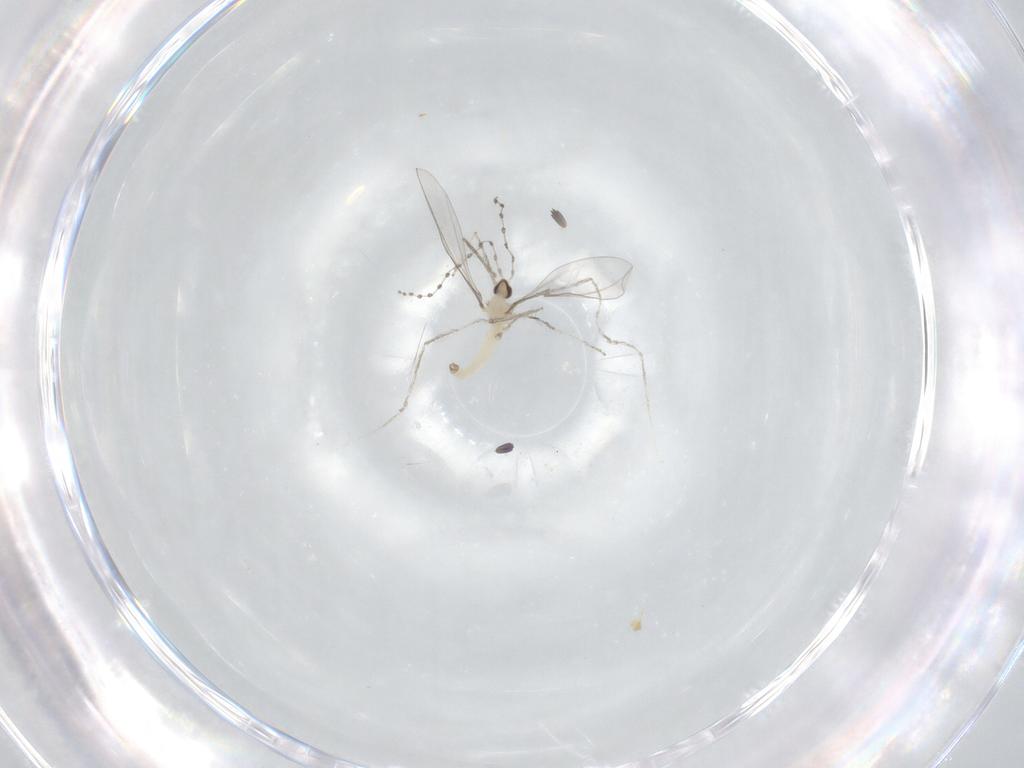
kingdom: Animalia
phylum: Arthropoda
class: Insecta
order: Diptera
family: Cecidomyiidae
